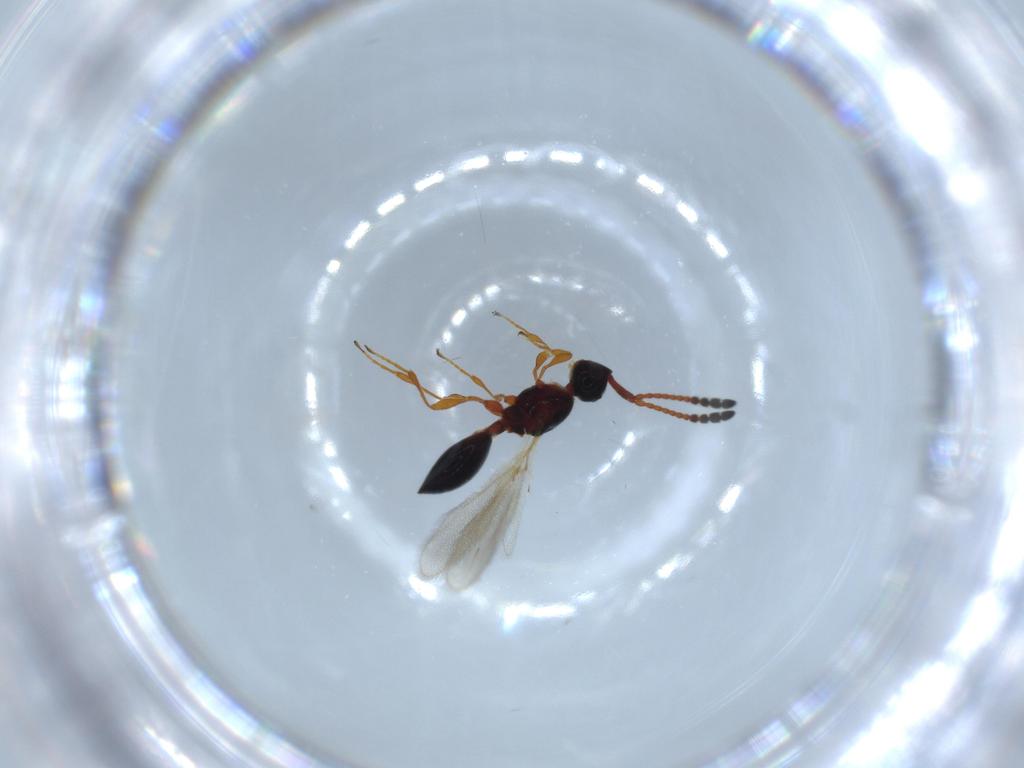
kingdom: Animalia
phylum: Arthropoda
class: Insecta
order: Hymenoptera
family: Diapriidae
